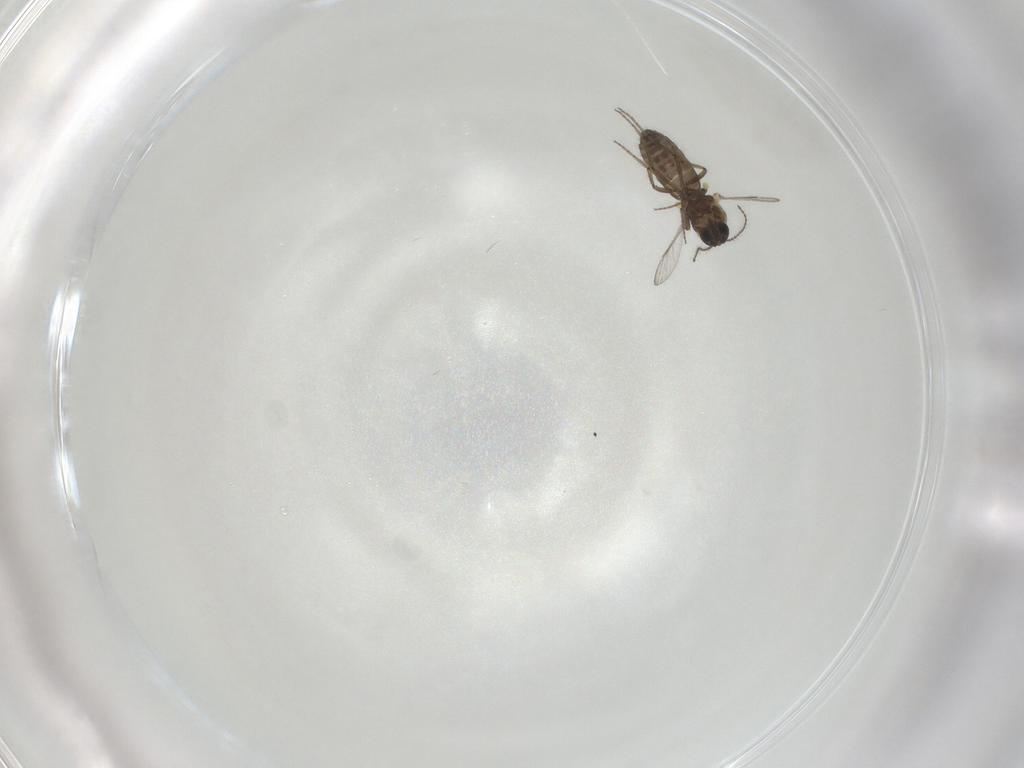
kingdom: Animalia
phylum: Arthropoda
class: Insecta
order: Diptera
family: Ceratopogonidae
